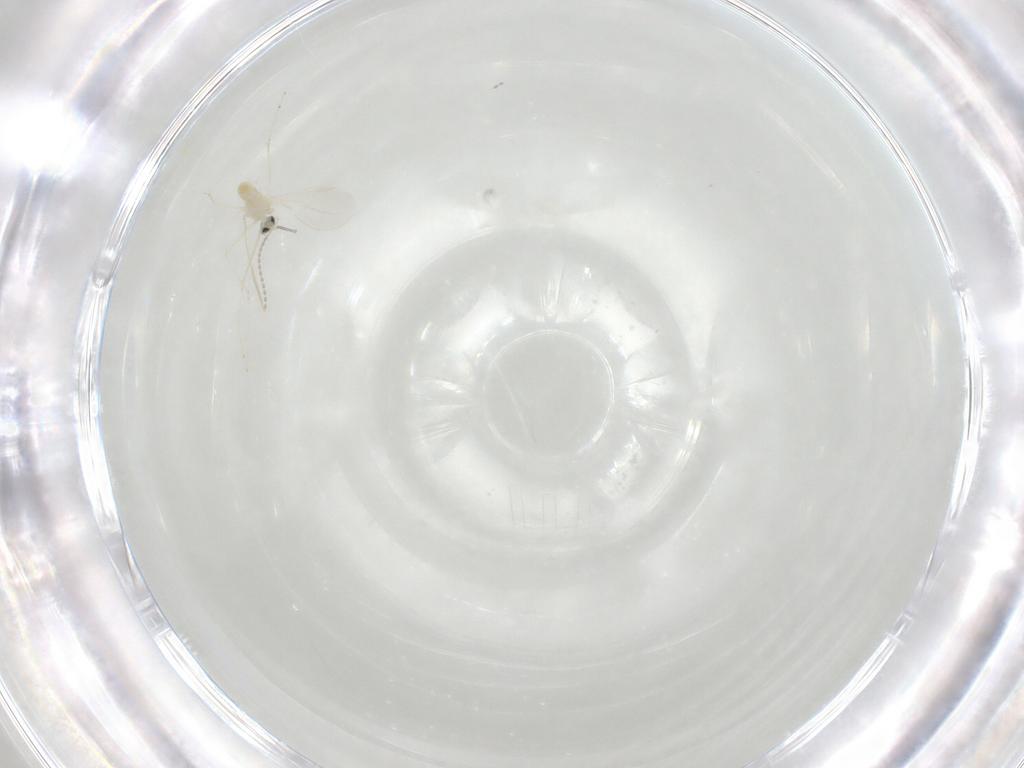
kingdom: Animalia
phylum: Arthropoda
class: Insecta
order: Diptera
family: Cecidomyiidae
